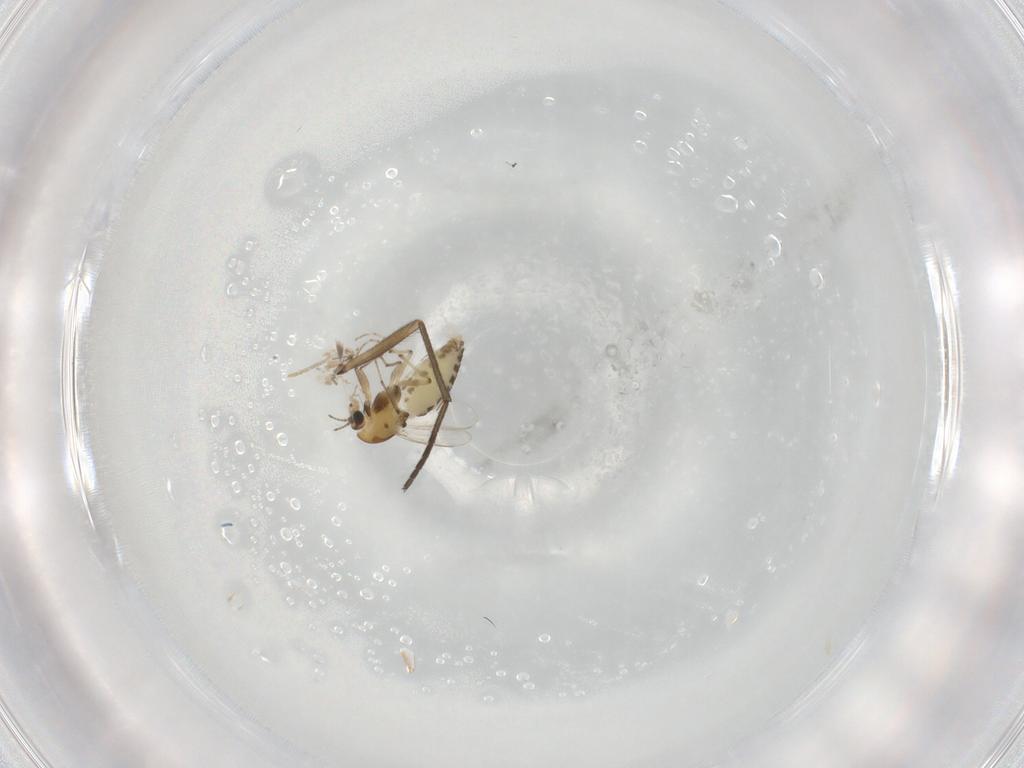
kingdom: Animalia
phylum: Arthropoda
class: Insecta
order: Diptera
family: Chironomidae
